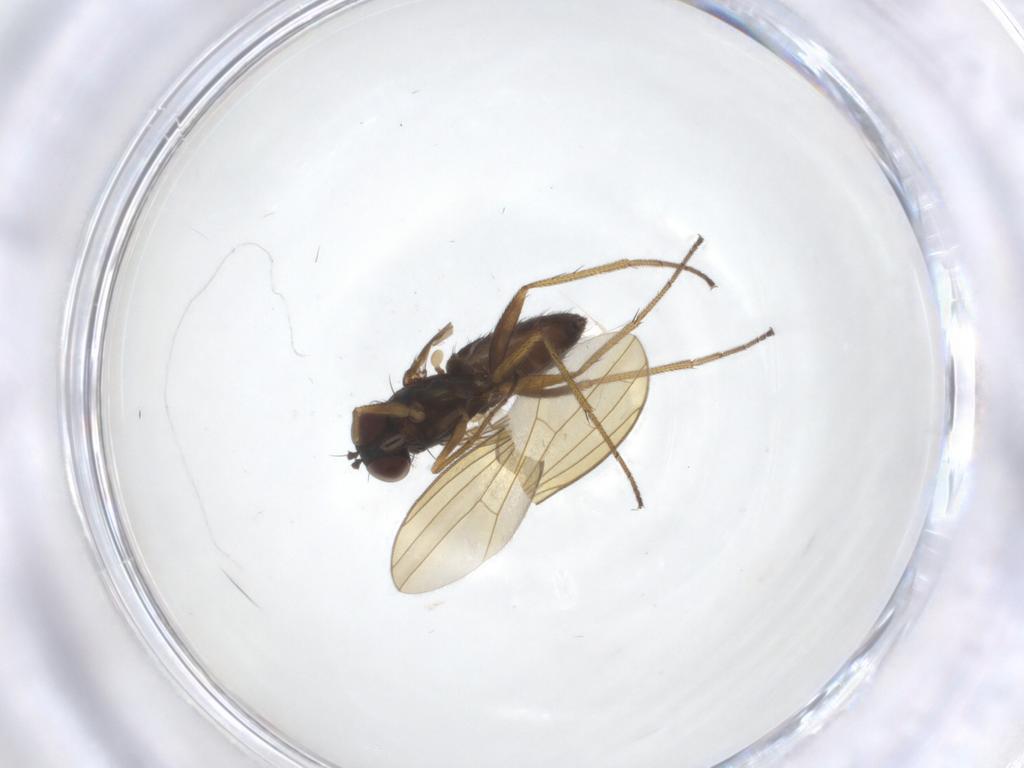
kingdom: Animalia
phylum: Arthropoda
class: Insecta
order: Diptera
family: Dolichopodidae
